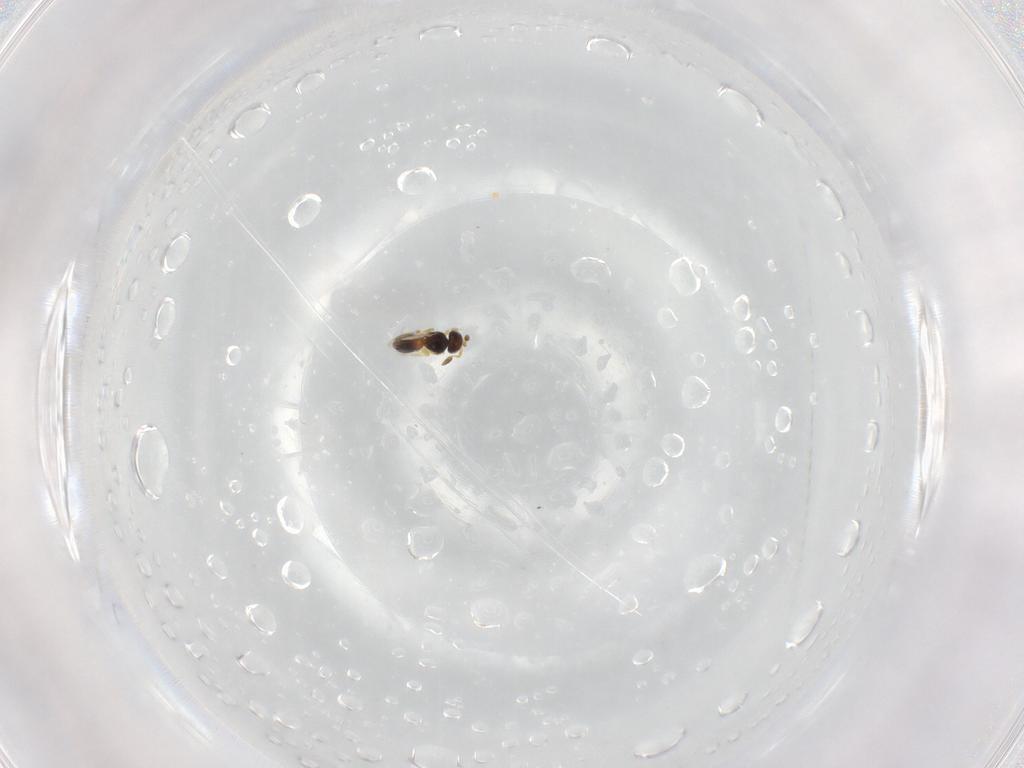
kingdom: Animalia
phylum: Arthropoda
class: Insecta
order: Hymenoptera
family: Platygastridae
